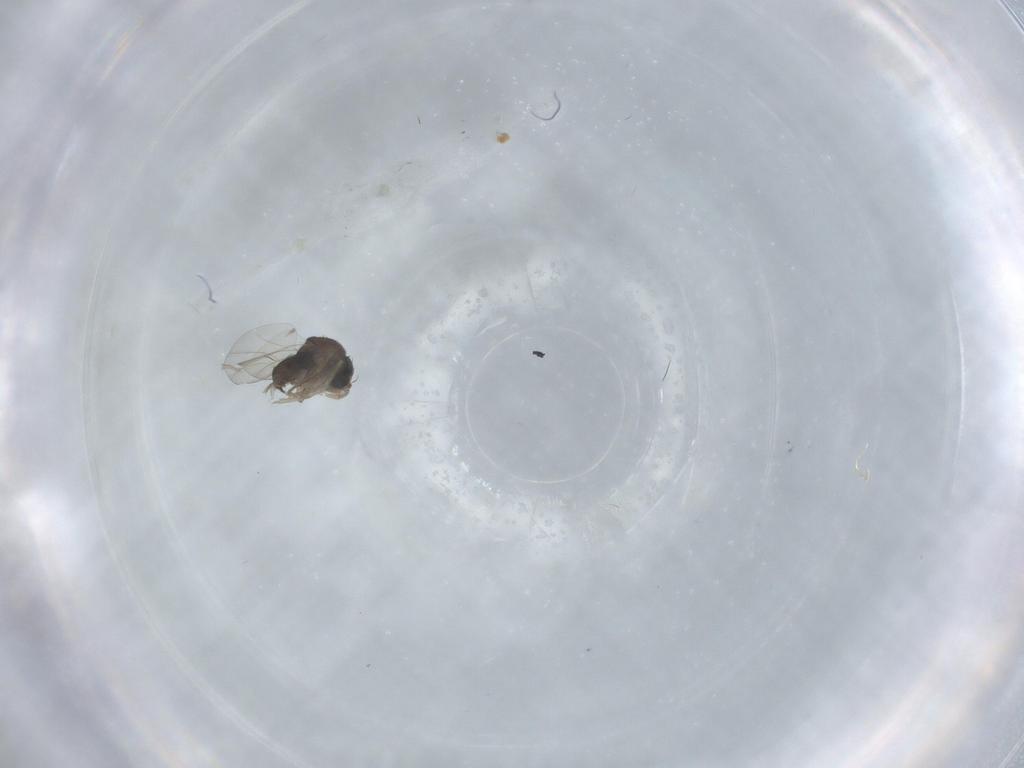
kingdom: Animalia
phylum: Arthropoda
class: Insecta
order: Diptera
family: Ceratopogonidae
